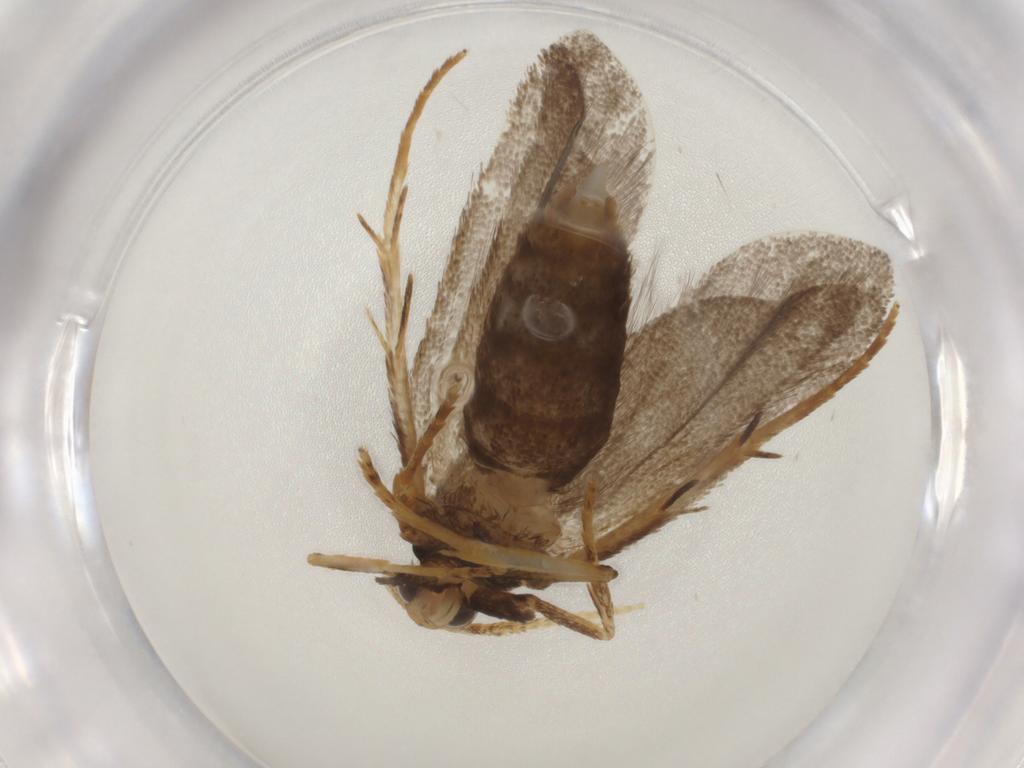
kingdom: Animalia
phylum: Arthropoda
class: Insecta
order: Lepidoptera
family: Lecithoceridae
